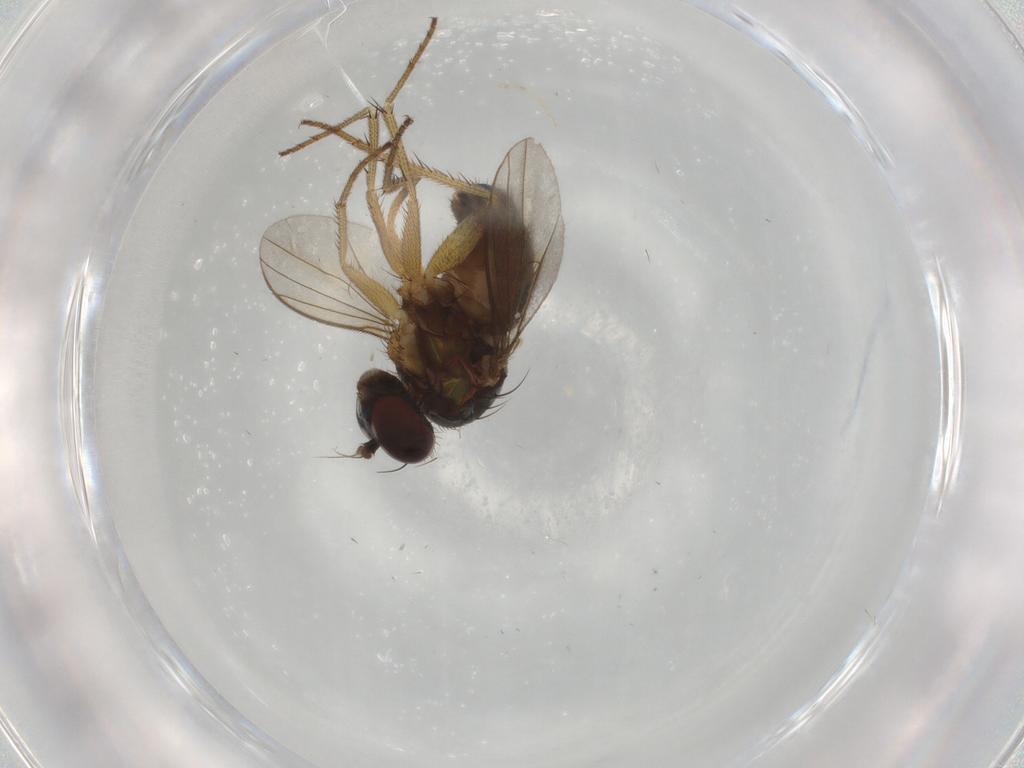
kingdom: Animalia
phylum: Arthropoda
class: Insecta
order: Diptera
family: Dolichopodidae
